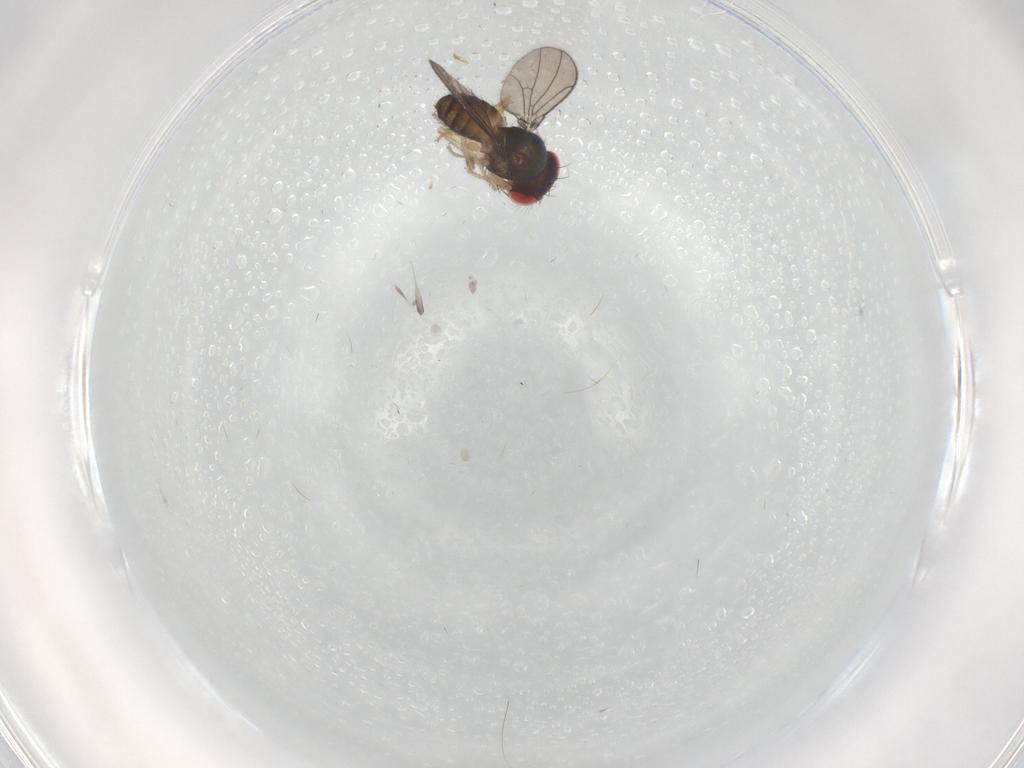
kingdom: Animalia
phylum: Arthropoda
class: Insecta
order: Diptera
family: Drosophilidae
